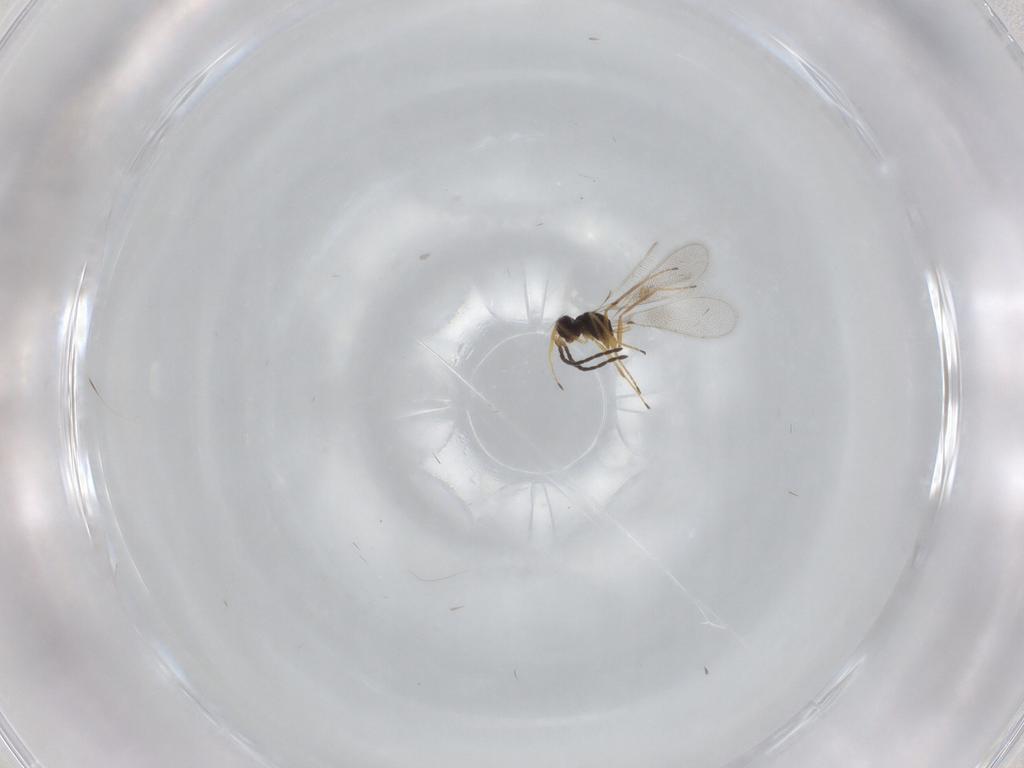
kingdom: Animalia
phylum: Arthropoda
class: Insecta
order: Hymenoptera
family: Mymaridae
